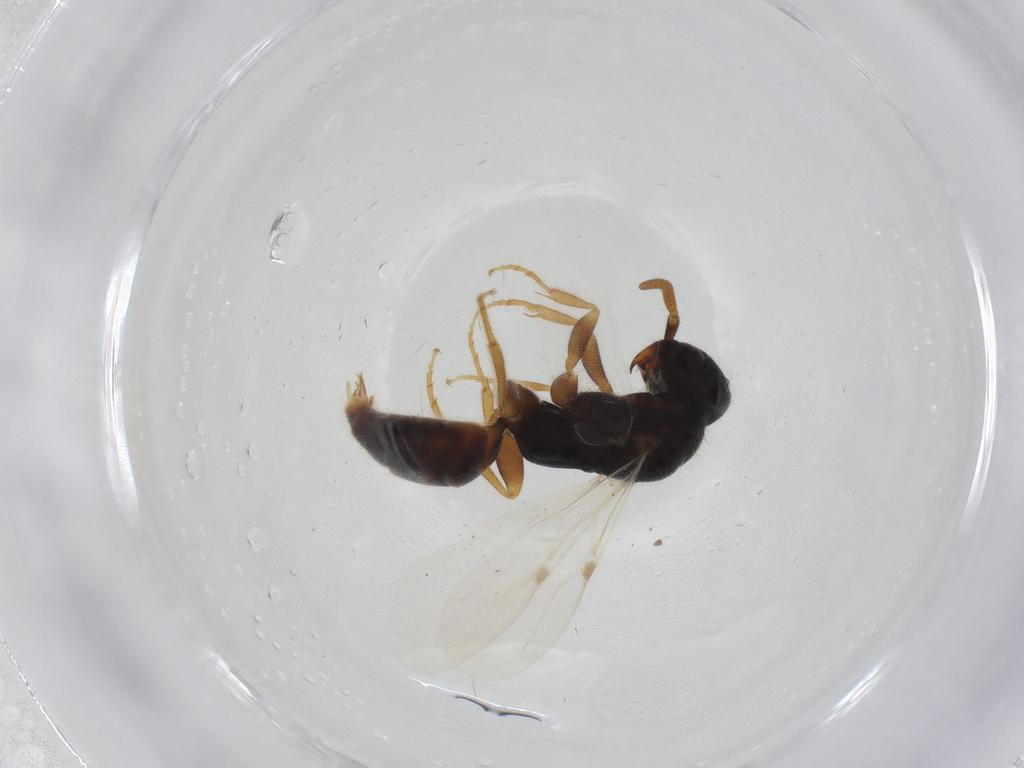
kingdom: Animalia
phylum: Arthropoda
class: Insecta
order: Hymenoptera
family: Bethylidae
